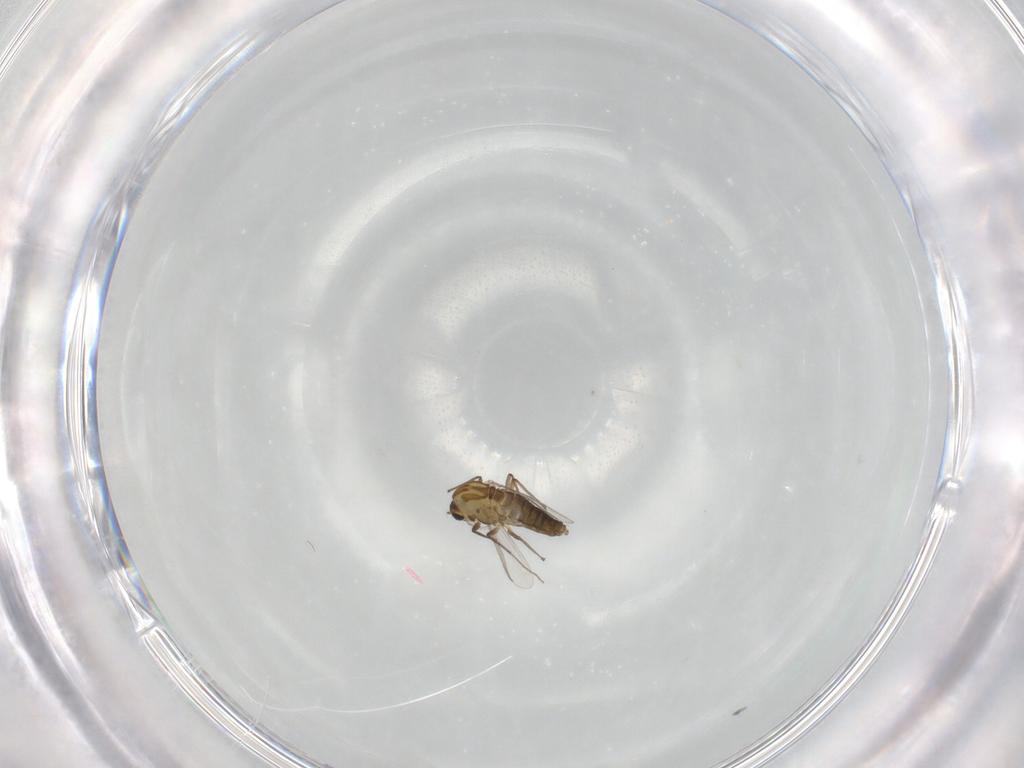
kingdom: Animalia
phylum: Arthropoda
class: Insecta
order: Diptera
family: Chironomidae
